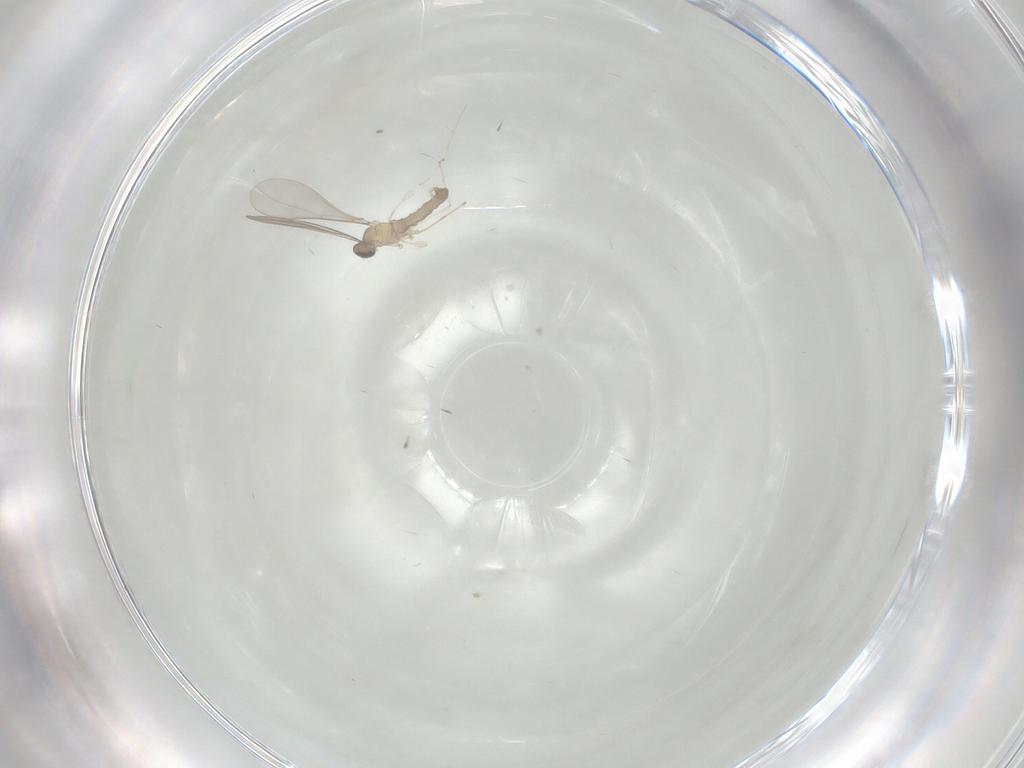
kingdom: Animalia
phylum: Arthropoda
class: Insecta
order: Diptera
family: Cecidomyiidae
